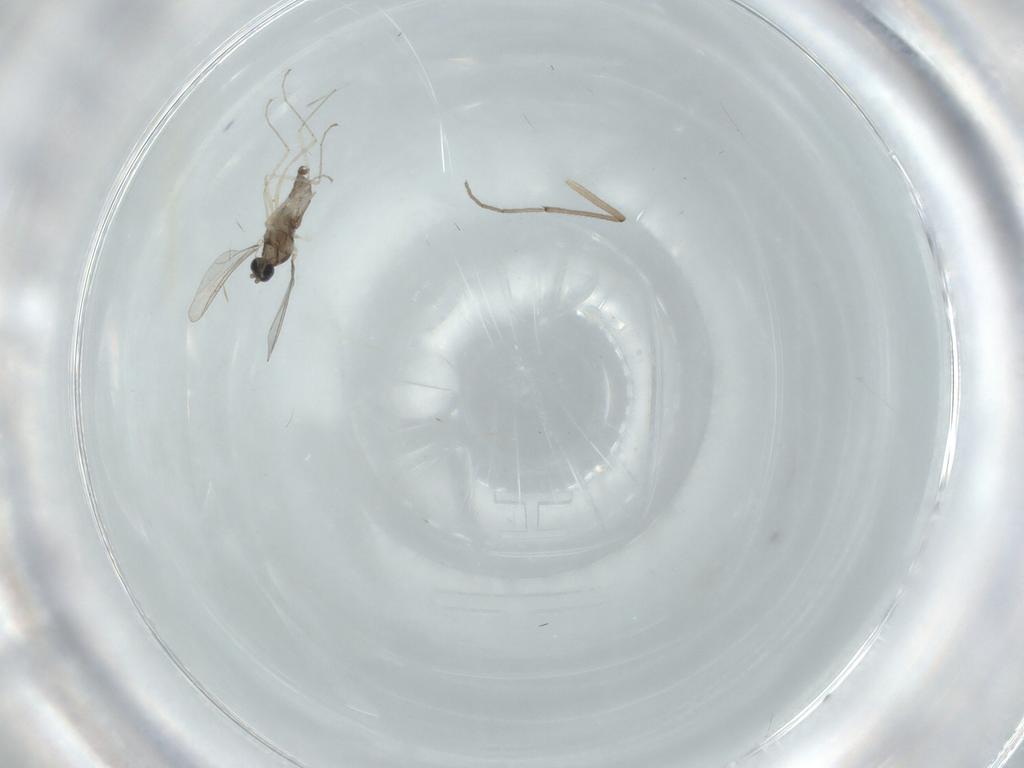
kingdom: Animalia
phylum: Arthropoda
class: Insecta
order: Diptera
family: Cecidomyiidae
